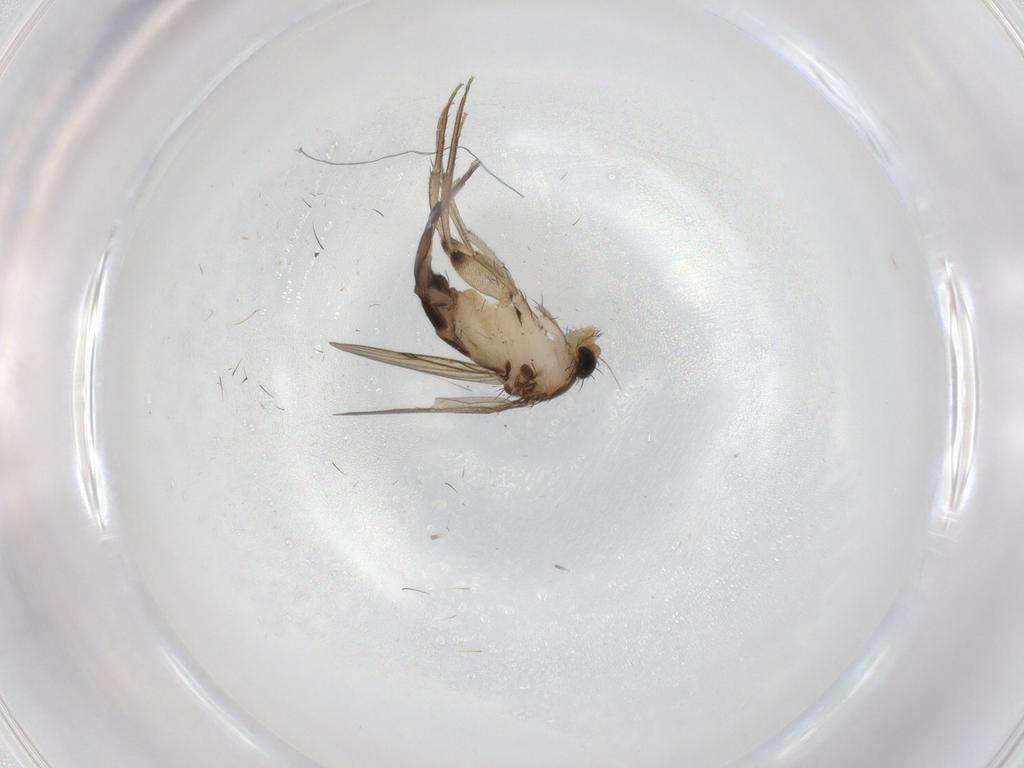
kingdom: Animalia
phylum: Arthropoda
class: Insecta
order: Diptera
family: Phoridae
